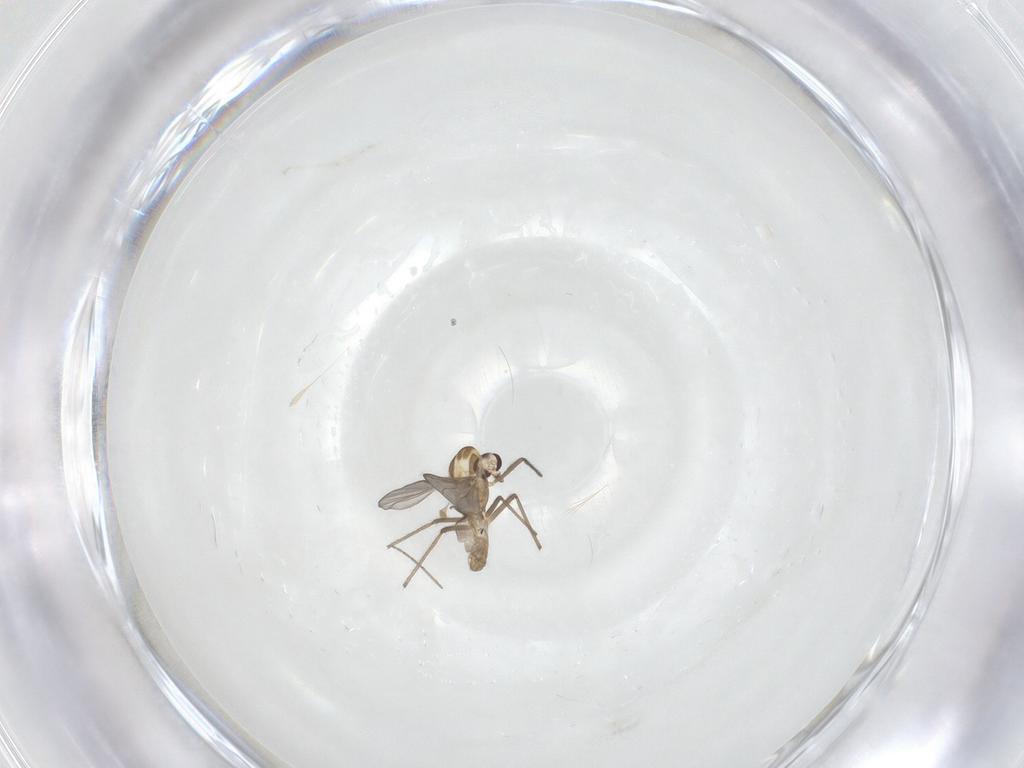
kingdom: Animalia
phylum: Arthropoda
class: Insecta
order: Diptera
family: Chironomidae
